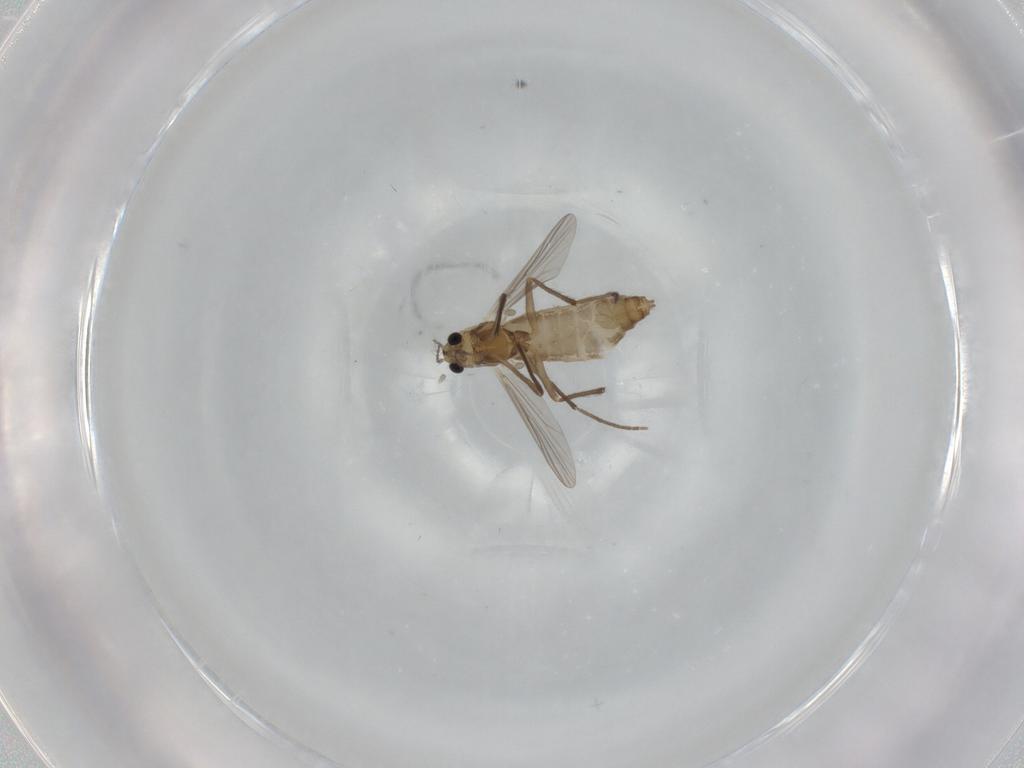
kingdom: Animalia
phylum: Arthropoda
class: Insecta
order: Diptera
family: Chironomidae
